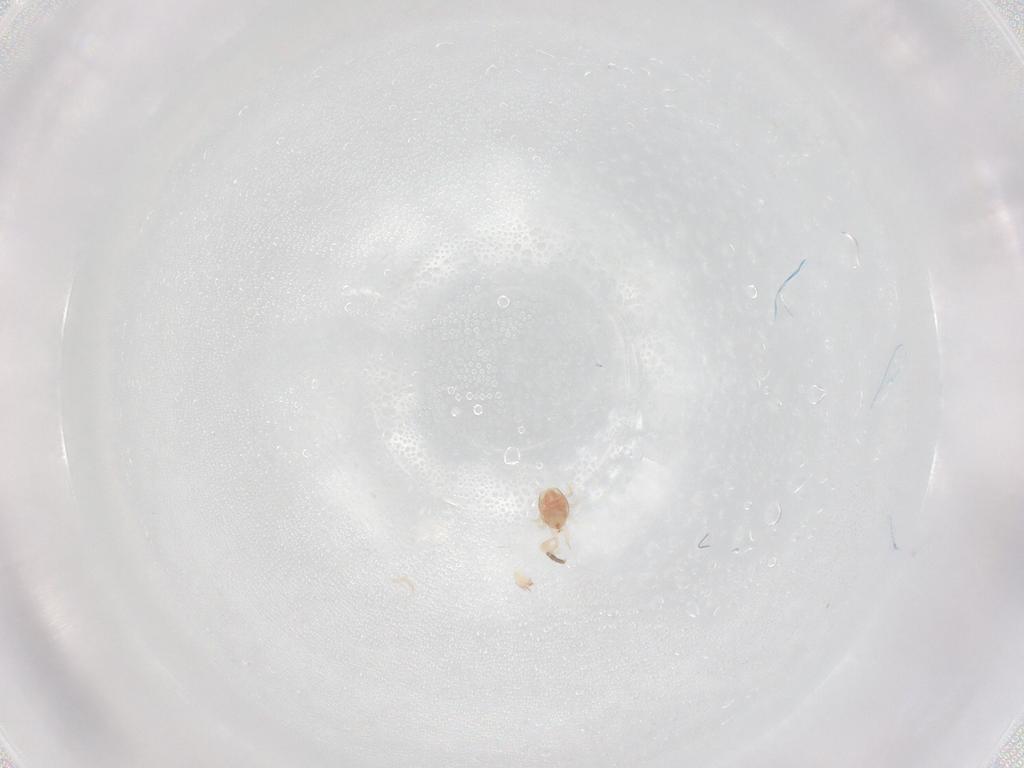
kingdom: Animalia
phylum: Arthropoda
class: Arachnida
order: Mesostigmata
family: Phytoseiidae
